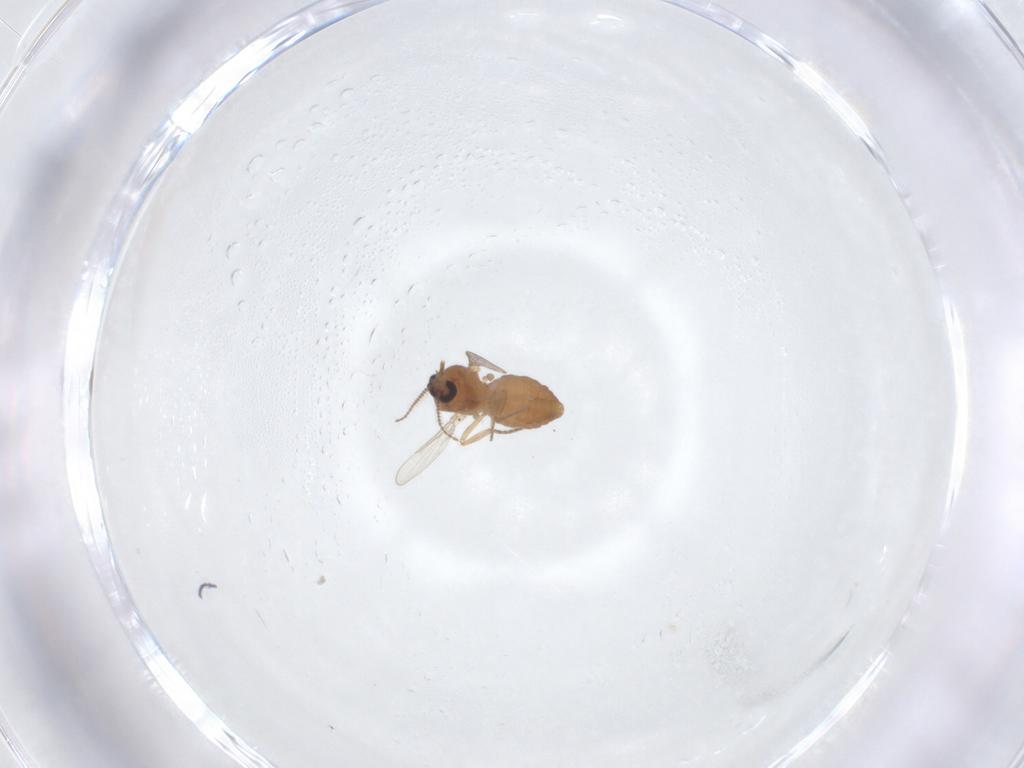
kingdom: Animalia
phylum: Arthropoda
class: Insecta
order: Diptera
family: Ceratopogonidae
